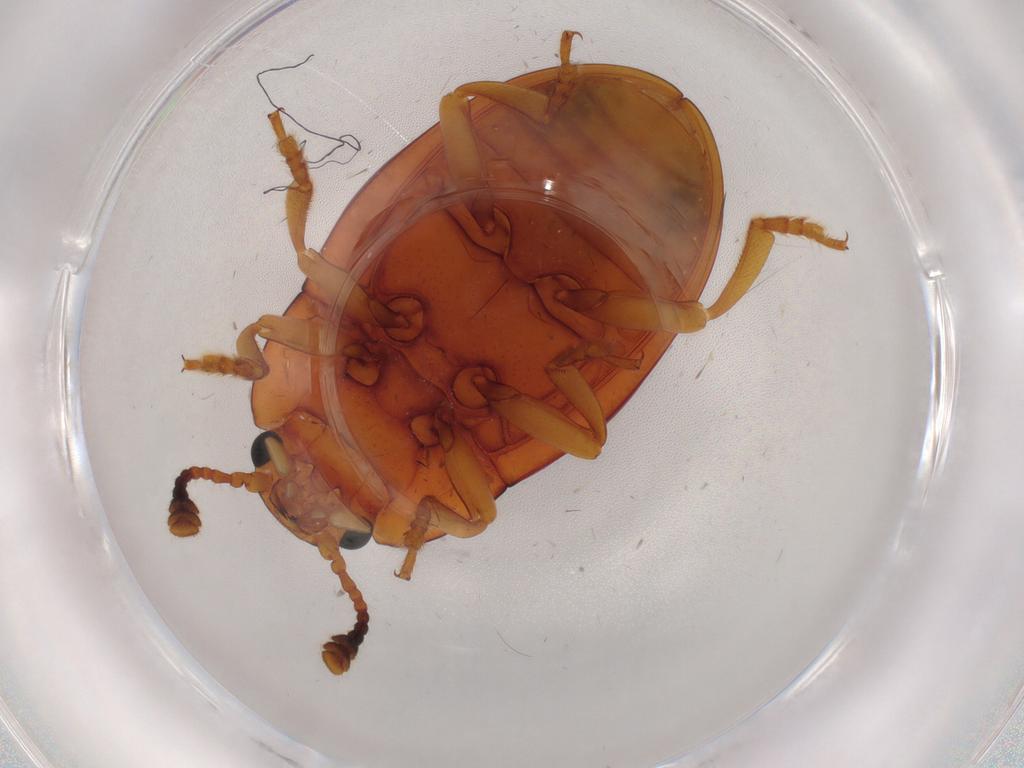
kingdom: Animalia
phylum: Arthropoda
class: Insecta
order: Coleoptera
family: Erotylidae
